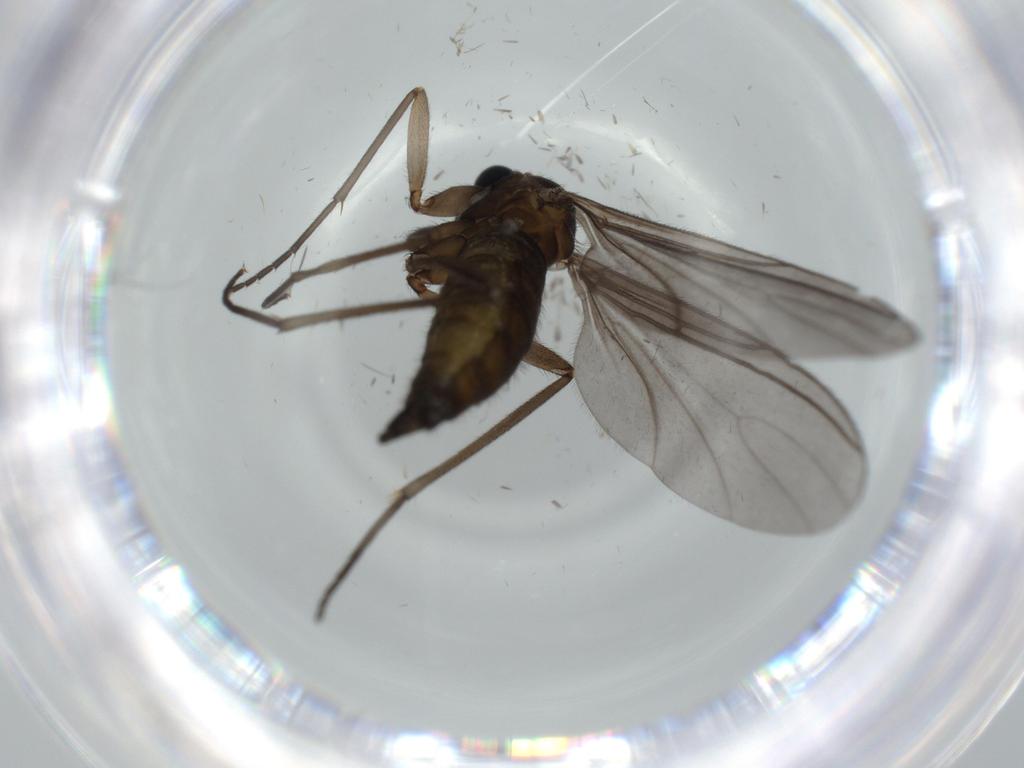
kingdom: Animalia
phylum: Arthropoda
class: Insecta
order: Diptera
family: Sciaridae
